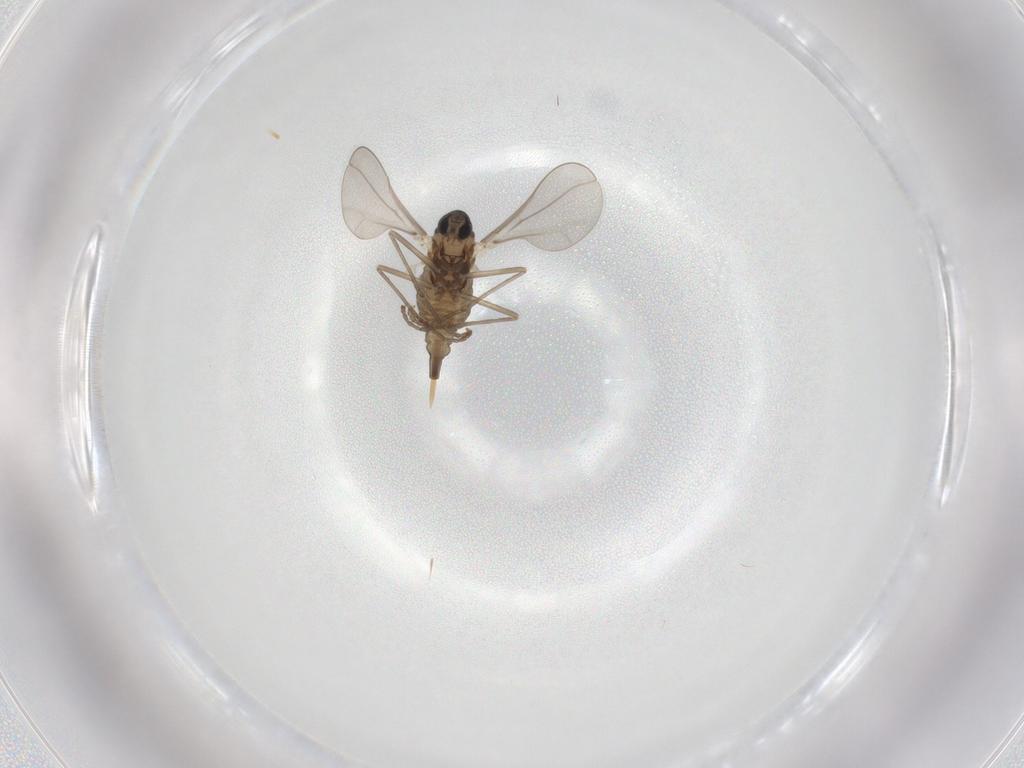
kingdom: Animalia
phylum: Arthropoda
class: Insecta
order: Diptera
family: Cecidomyiidae
